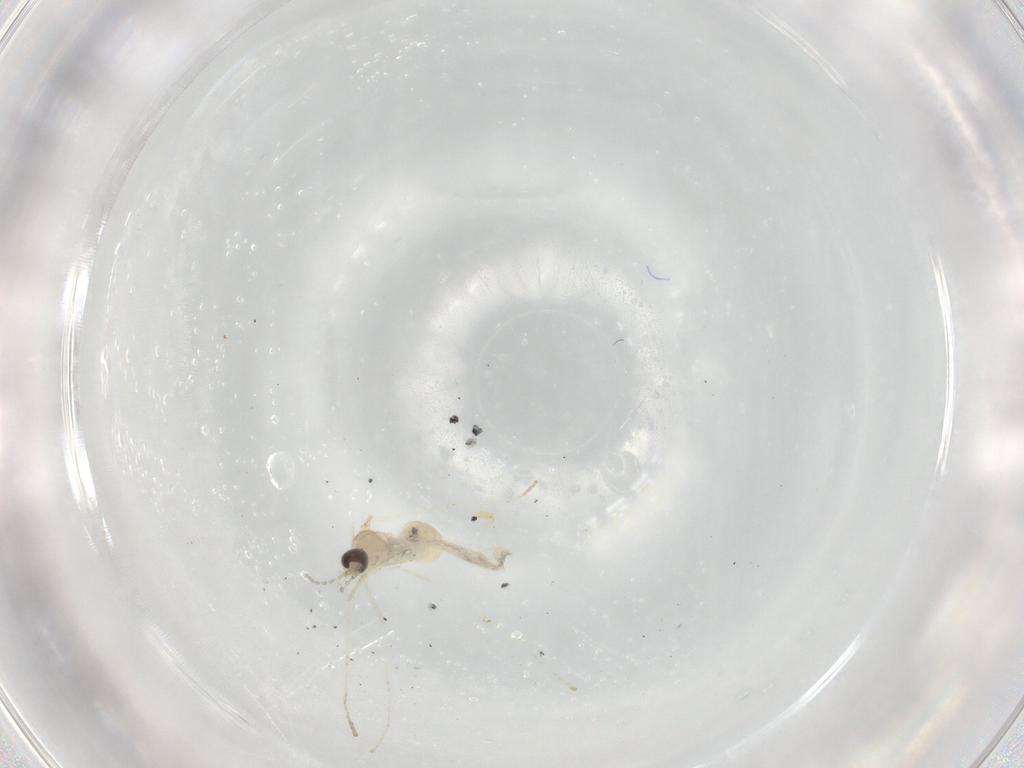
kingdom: Animalia
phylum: Arthropoda
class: Insecta
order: Diptera
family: Cecidomyiidae
